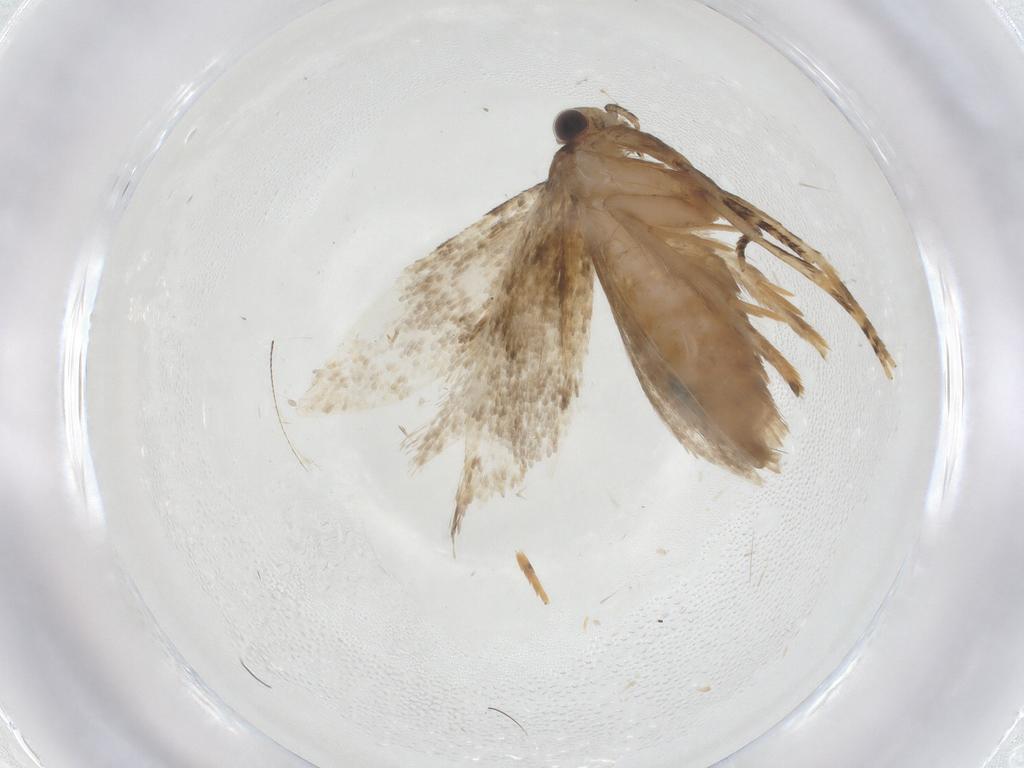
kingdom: Animalia
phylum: Arthropoda
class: Insecta
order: Lepidoptera
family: Tineidae
